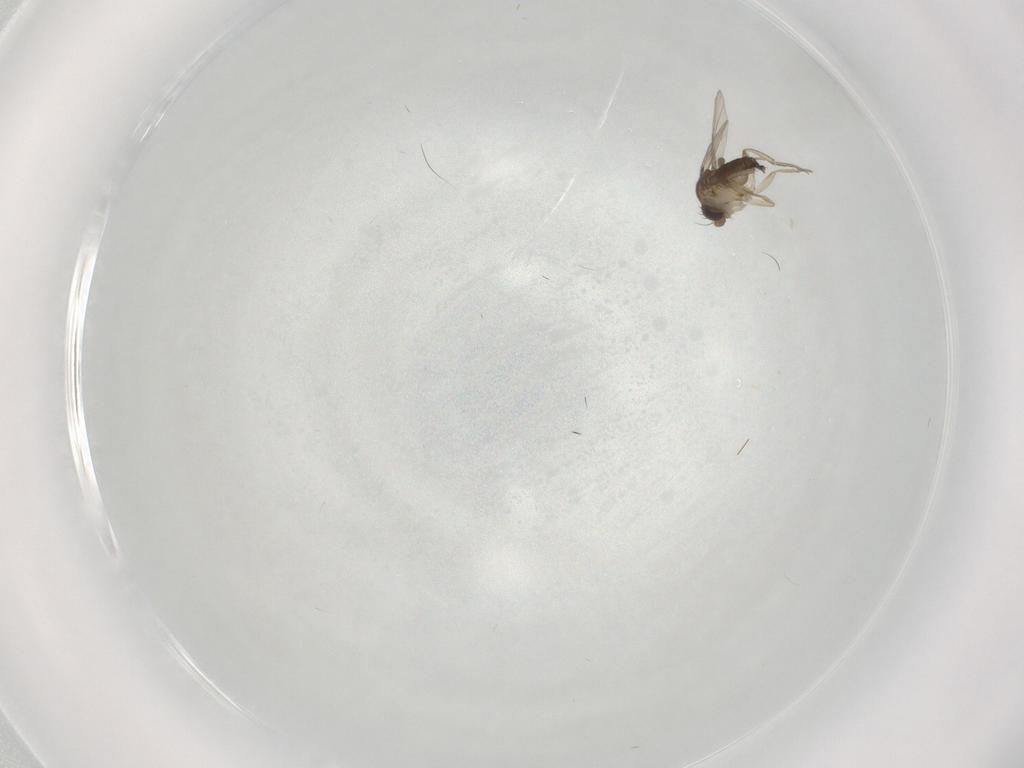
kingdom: Animalia
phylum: Arthropoda
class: Insecta
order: Diptera
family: Phoridae
